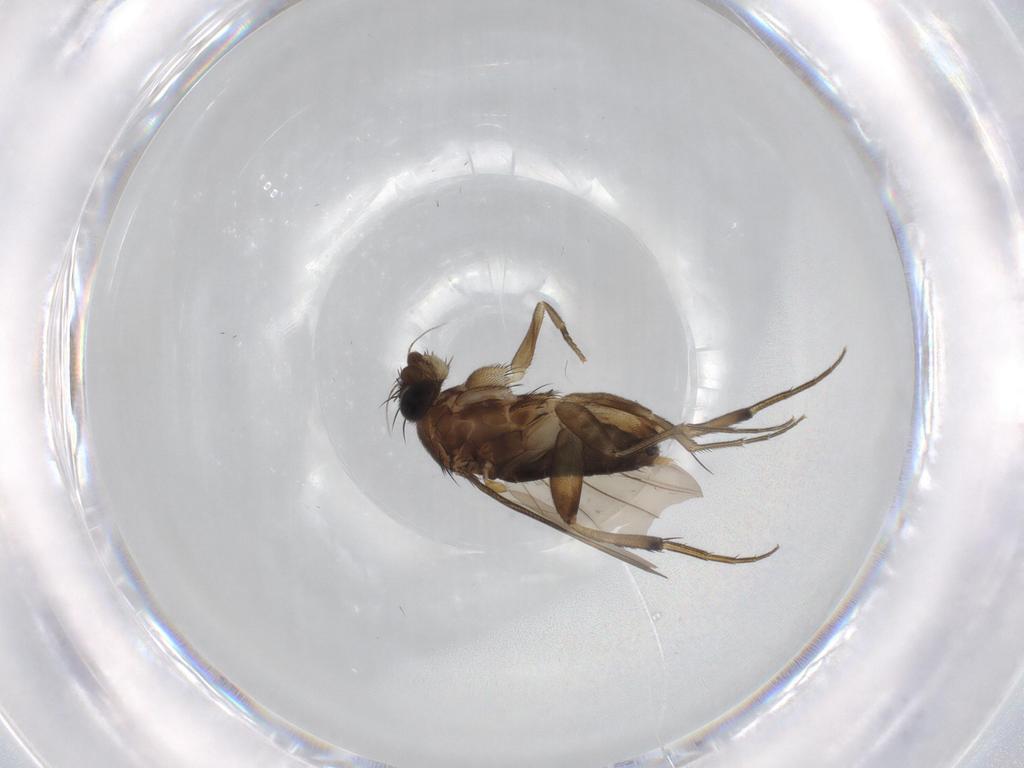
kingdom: Animalia
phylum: Arthropoda
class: Insecta
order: Diptera
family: Phoridae
